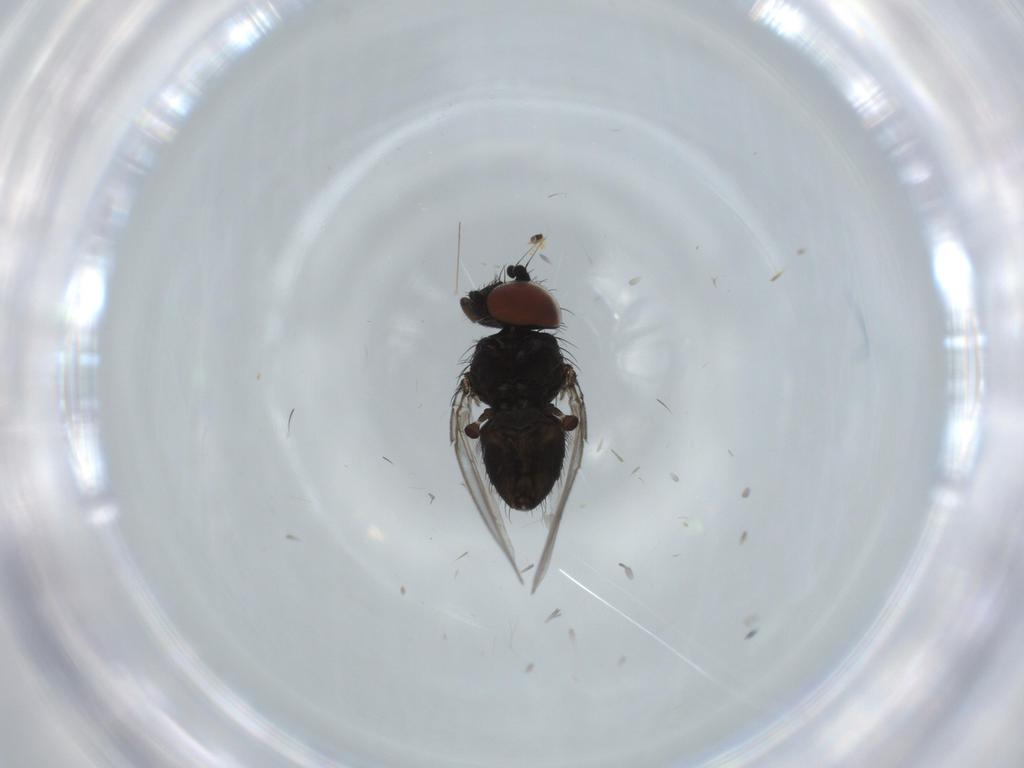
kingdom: Animalia
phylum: Arthropoda
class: Insecta
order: Diptera
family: Milichiidae
